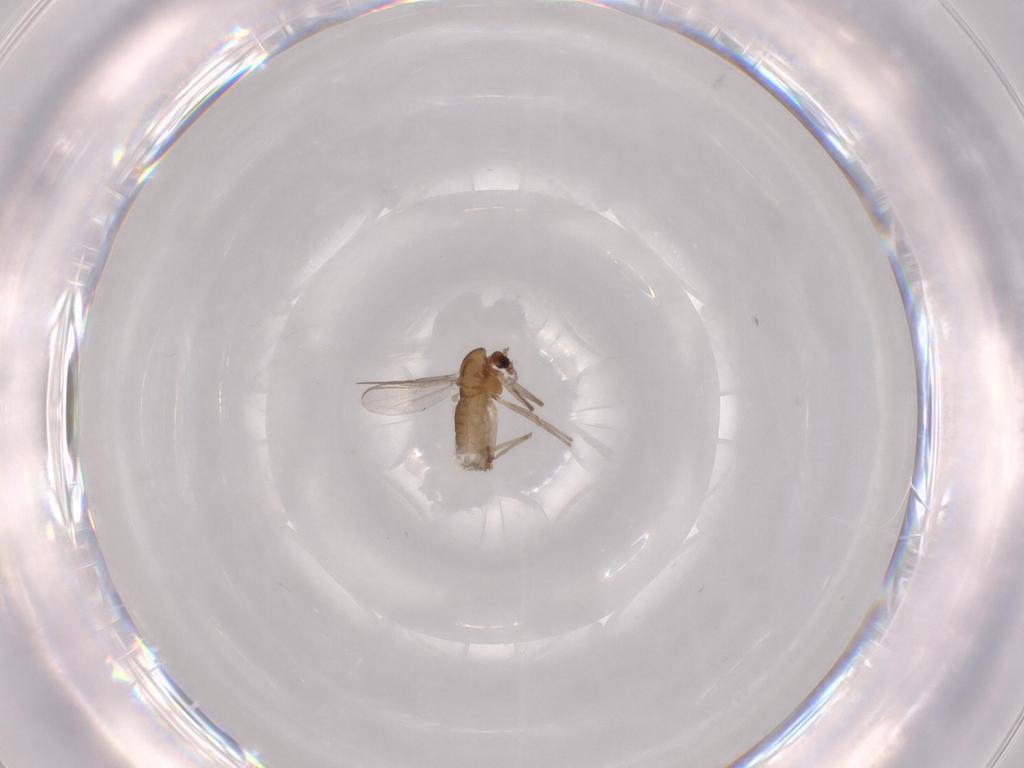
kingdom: Animalia
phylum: Arthropoda
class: Insecta
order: Diptera
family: Chironomidae
